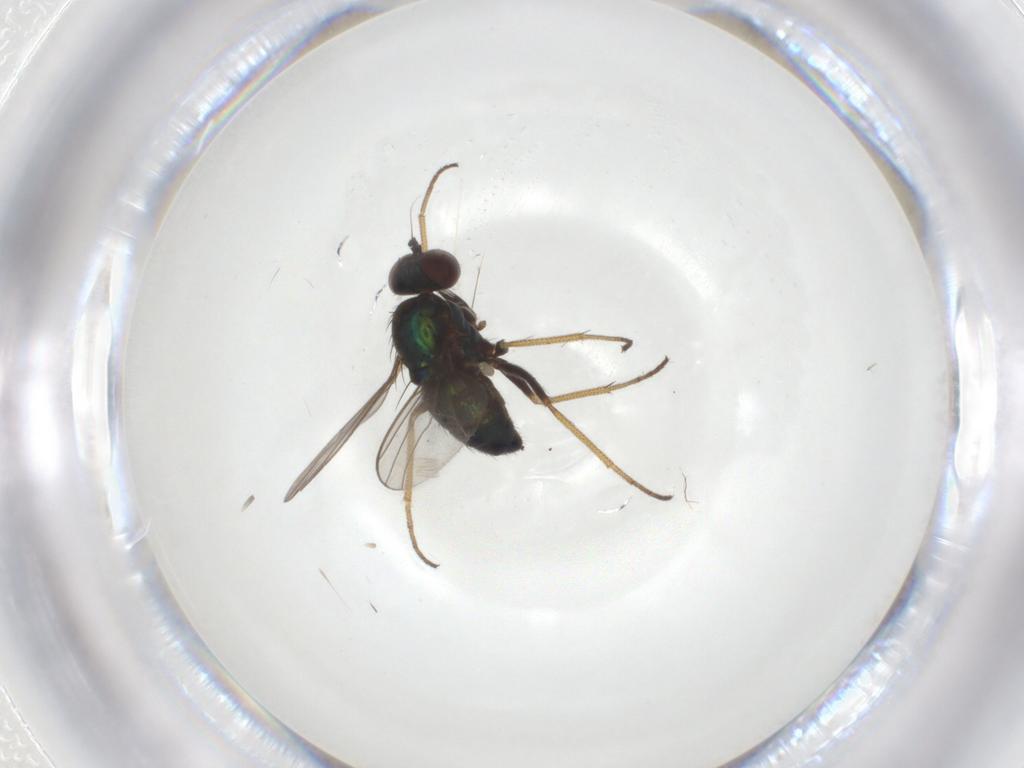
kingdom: Animalia
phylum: Arthropoda
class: Insecta
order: Diptera
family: Dolichopodidae
